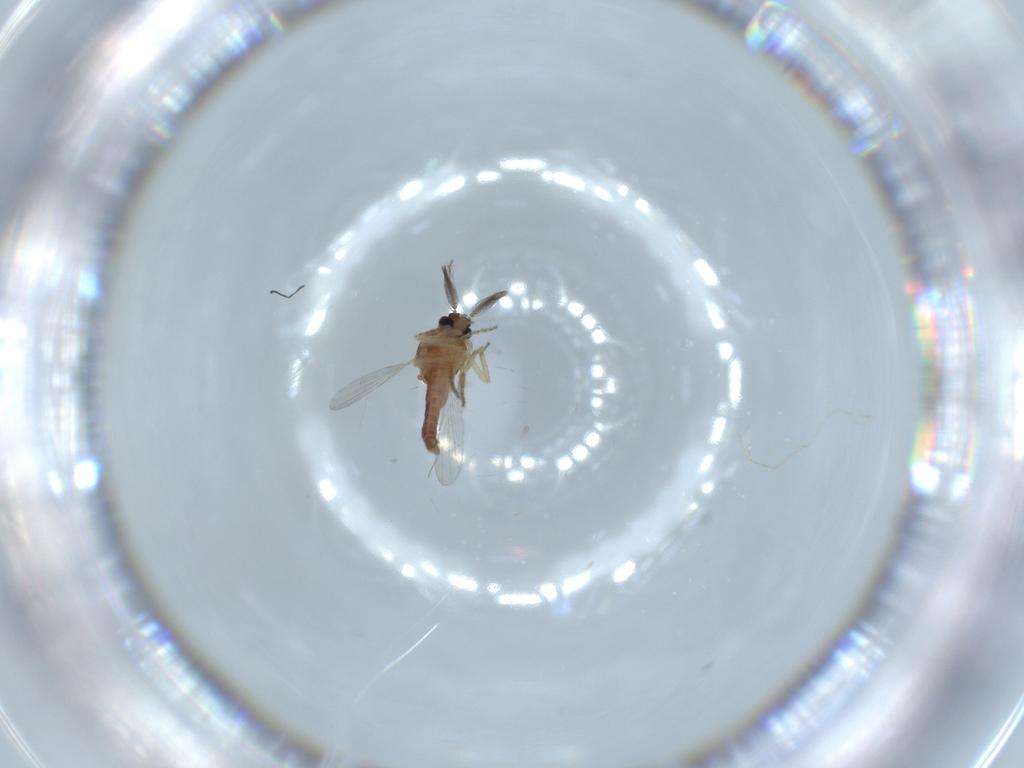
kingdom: Animalia
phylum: Arthropoda
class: Insecta
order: Diptera
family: Ceratopogonidae
